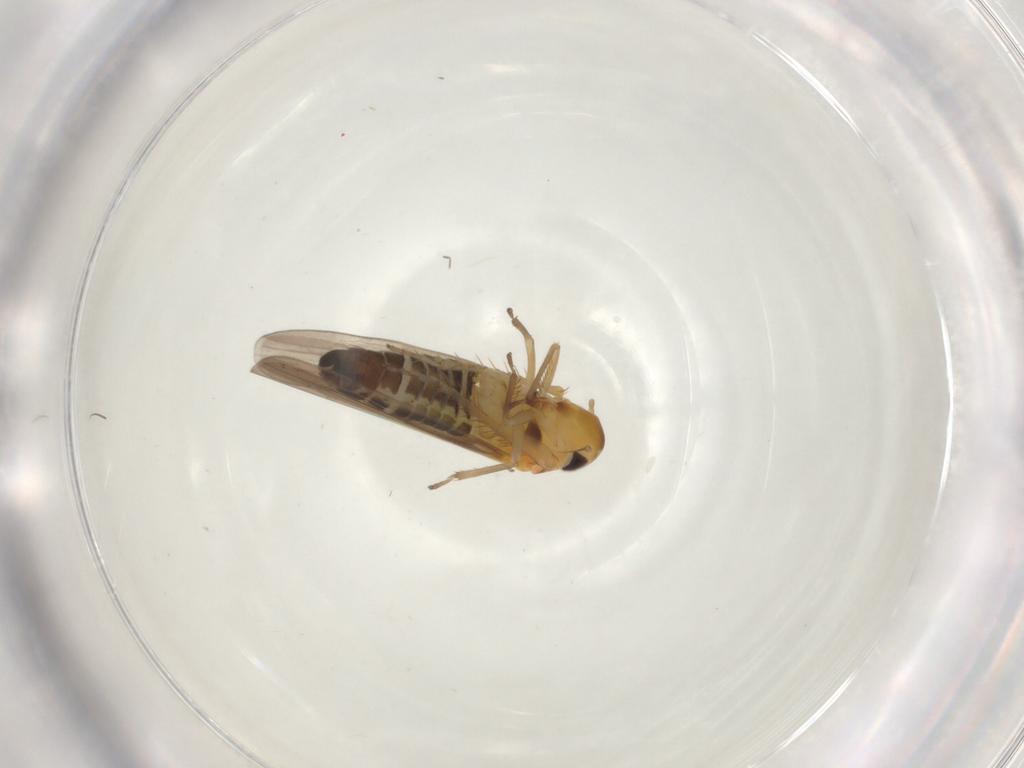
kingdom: Animalia
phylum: Arthropoda
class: Insecta
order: Hemiptera
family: Cicadellidae
